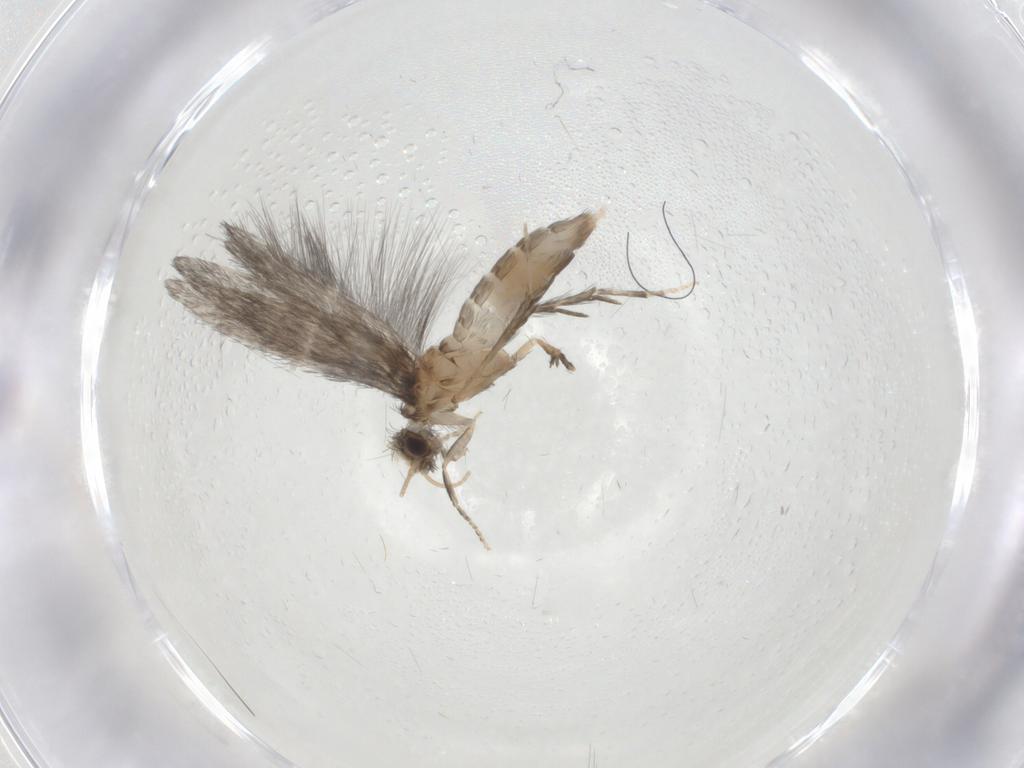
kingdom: Animalia
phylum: Arthropoda
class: Insecta
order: Trichoptera
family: Hydroptilidae
